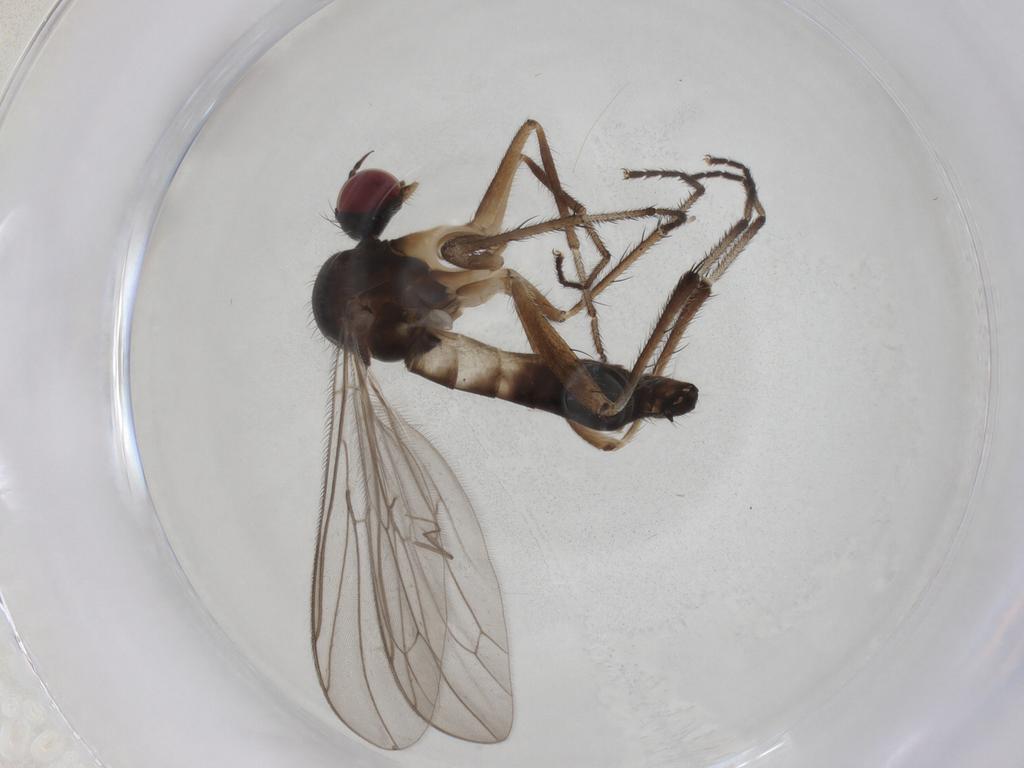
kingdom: Animalia
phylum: Arthropoda
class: Insecta
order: Diptera
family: Hybotidae
